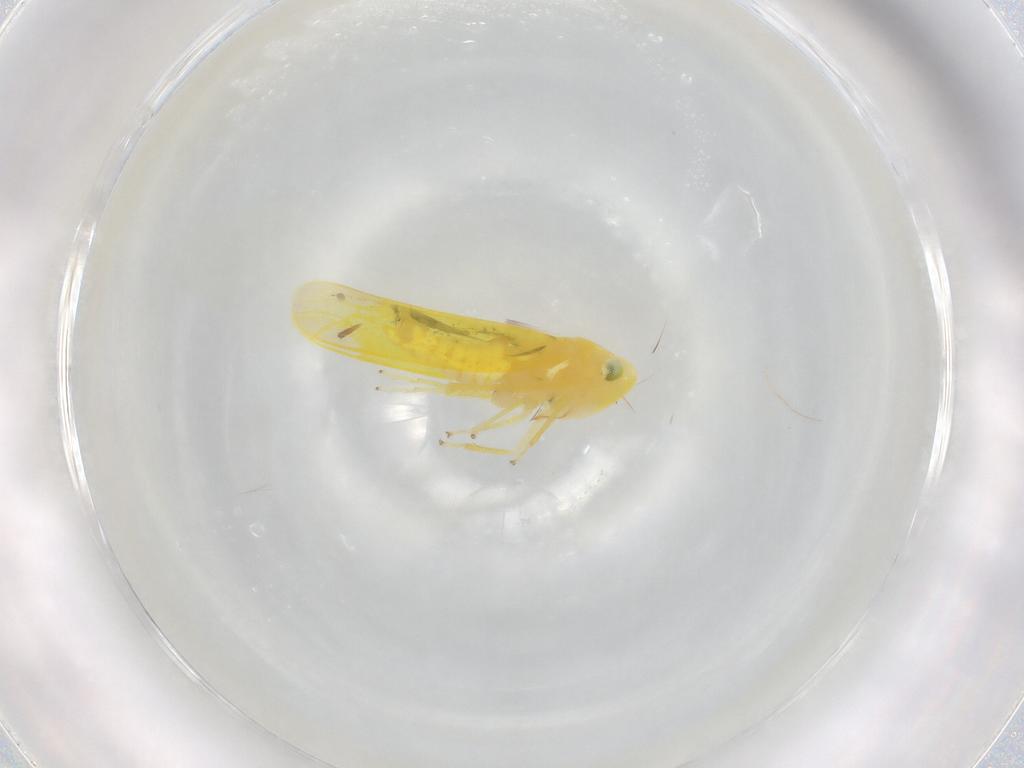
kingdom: Animalia
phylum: Arthropoda
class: Insecta
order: Hemiptera
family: Cicadellidae
